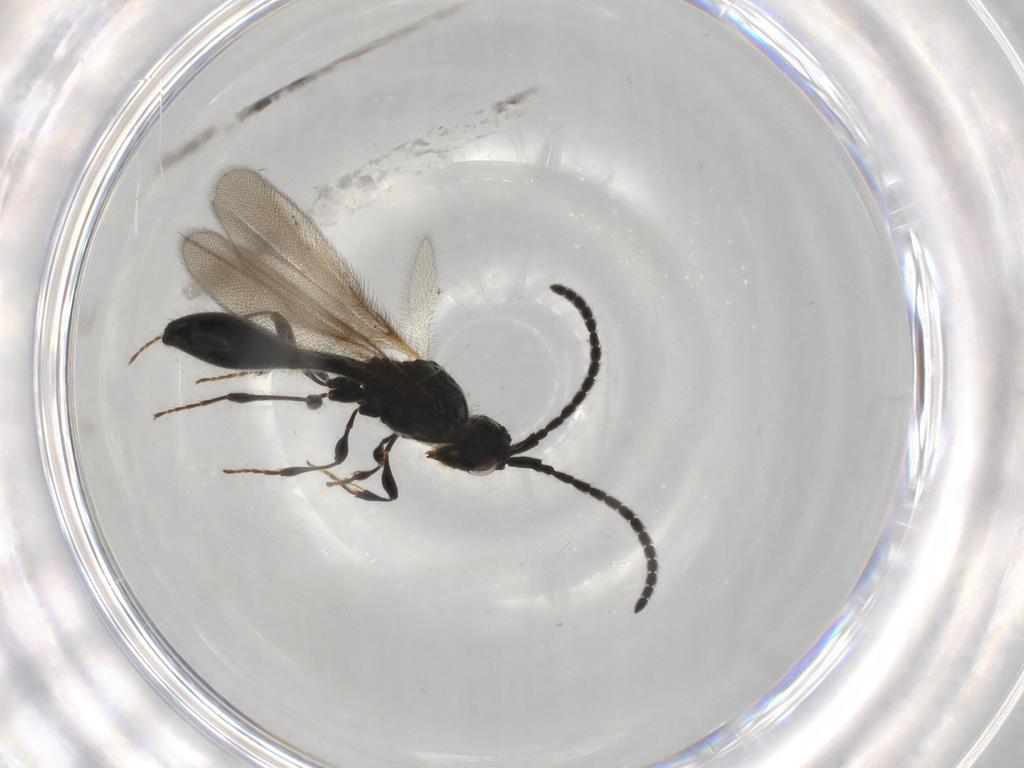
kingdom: Animalia
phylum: Arthropoda
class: Insecta
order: Hymenoptera
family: Diapriidae
